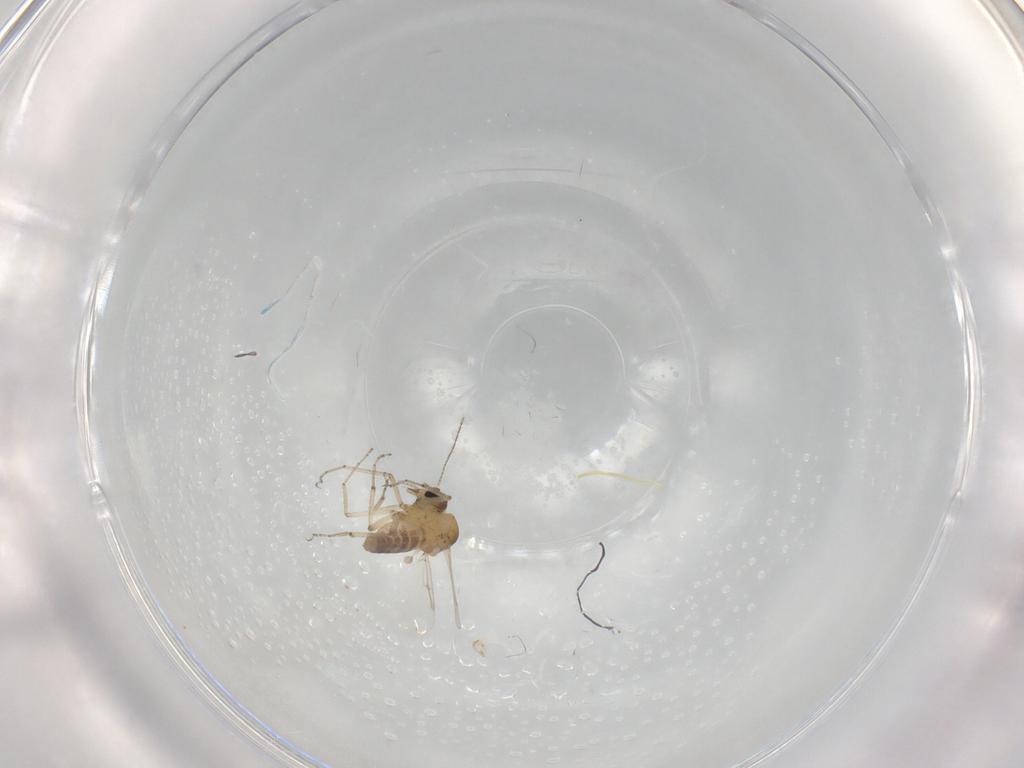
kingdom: Animalia
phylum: Arthropoda
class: Insecta
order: Diptera
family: Ceratopogonidae
